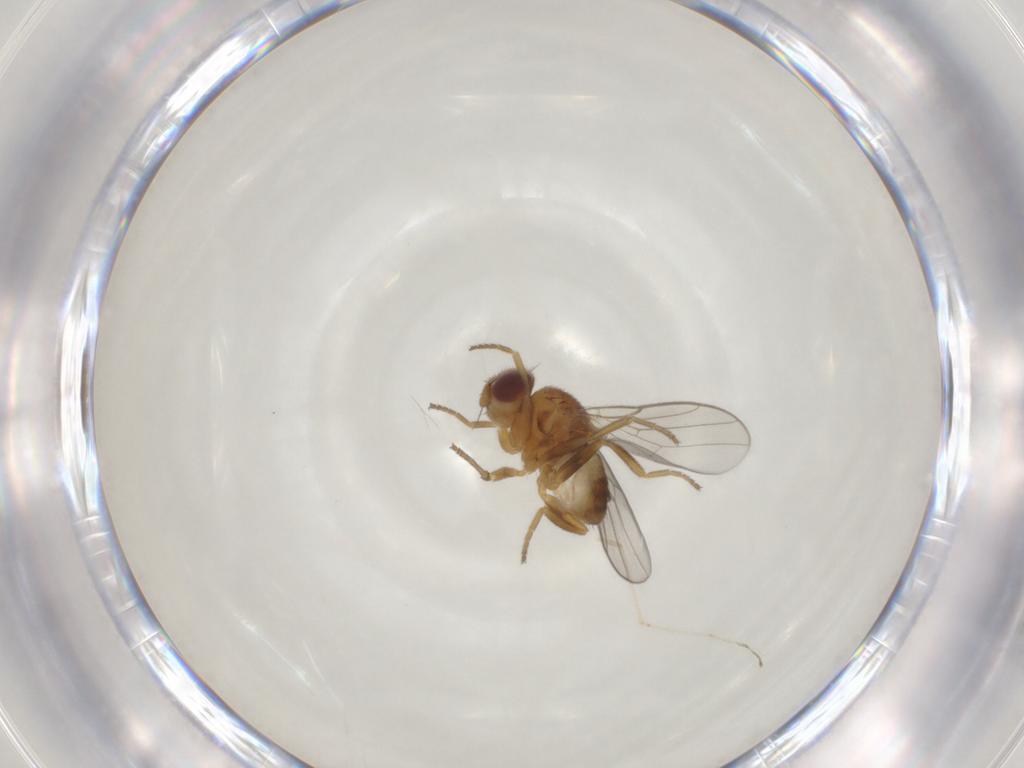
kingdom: Animalia
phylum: Arthropoda
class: Insecta
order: Diptera
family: Chloropidae
